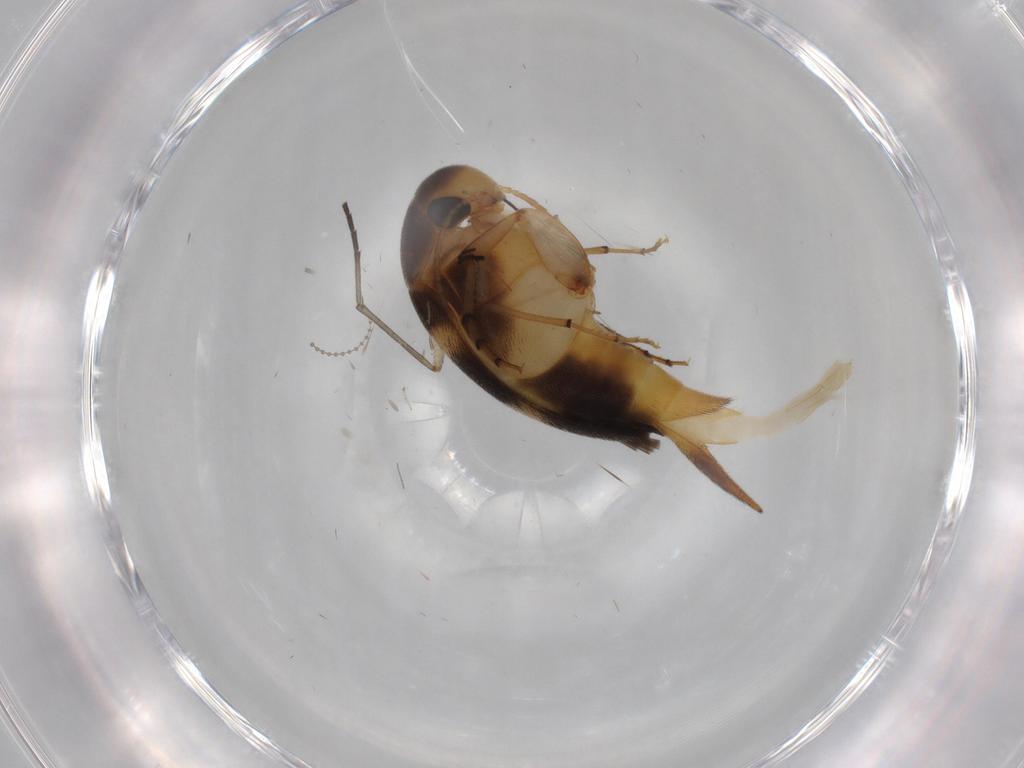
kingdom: Animalia
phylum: Arthropoda
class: Insecta
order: Coleoptera
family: Mordellidae
